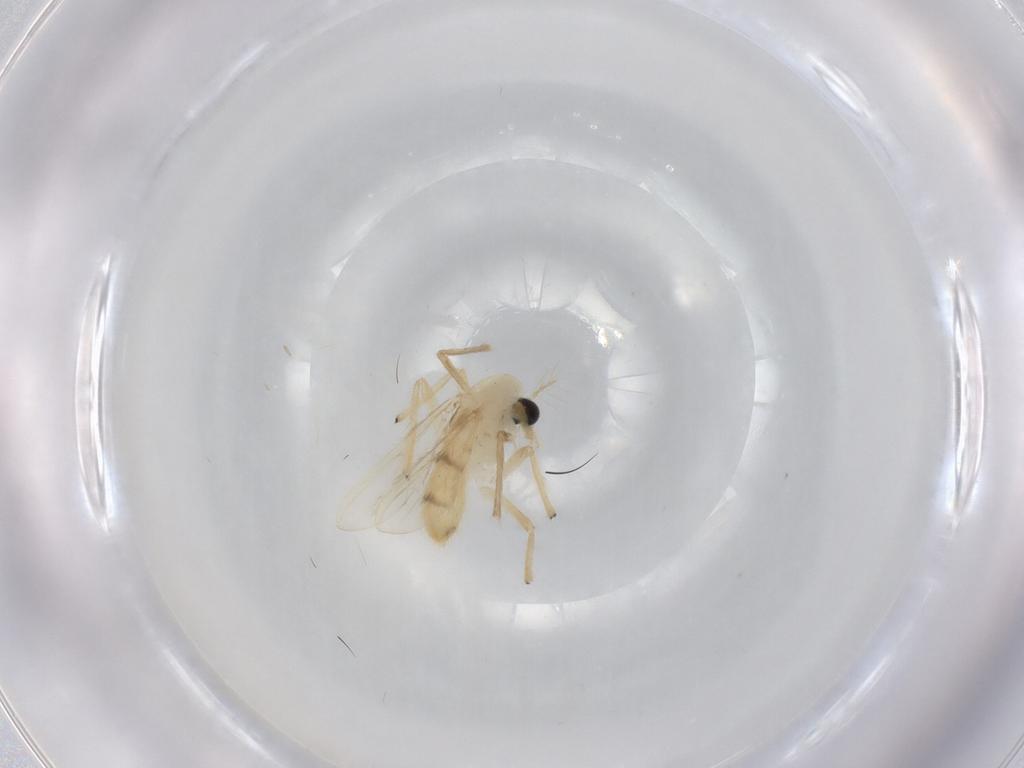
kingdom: Animalia
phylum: Arthropoda
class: Insecta
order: Diptera
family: Chironomidae
